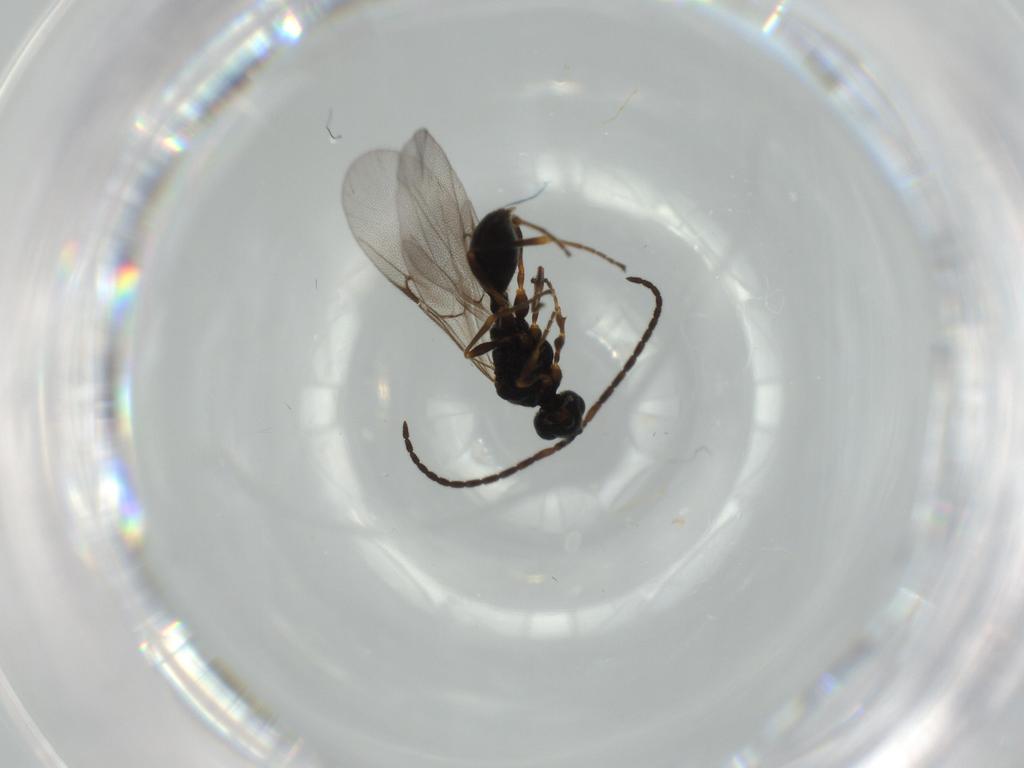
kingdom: Animalia
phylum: Arthropoda
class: Insecta
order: Hymenoptera
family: Diapriidae
